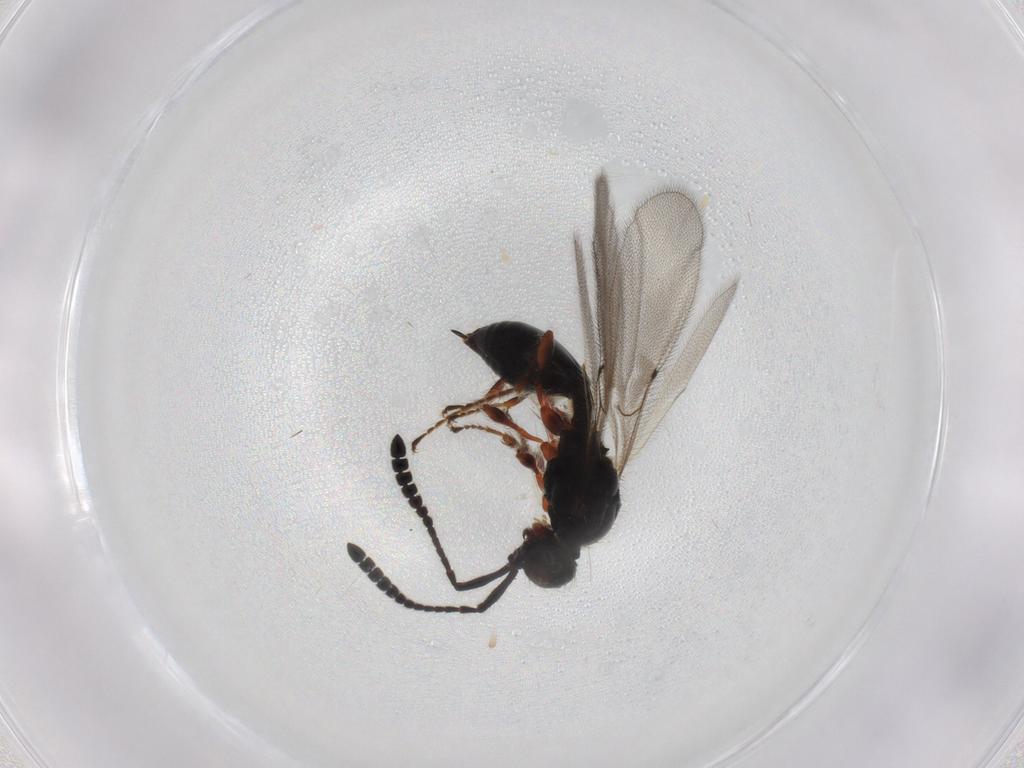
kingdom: Animalia
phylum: Arthropoda
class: Insecta
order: Hymenoptera
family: Diapriidae
